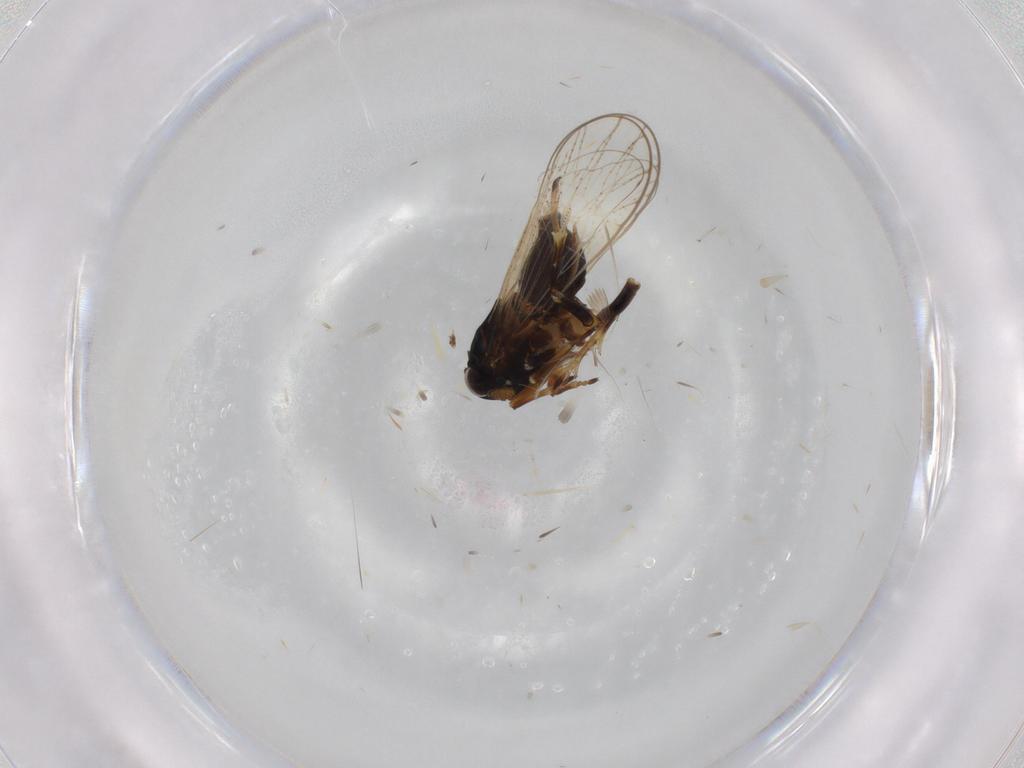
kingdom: Animalia
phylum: Arthropoda
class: Insecta
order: Hemiptera
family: Delphacidae
